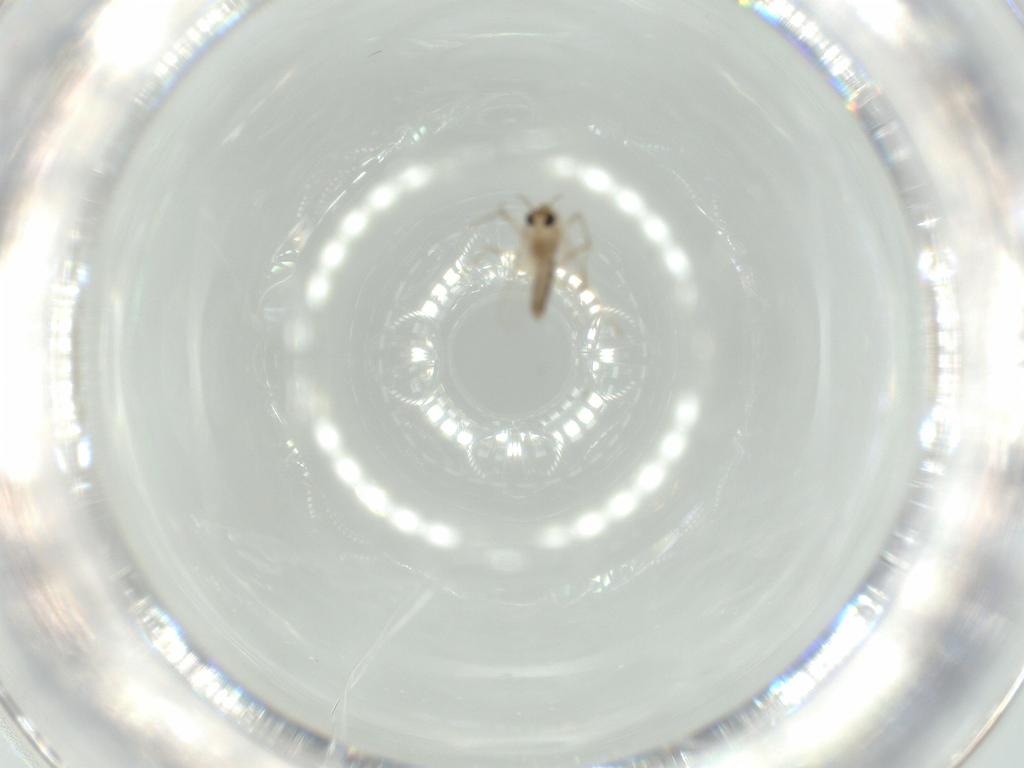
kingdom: Animalia
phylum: Arthropoda
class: Insecta
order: Diptera
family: Chironomidae
